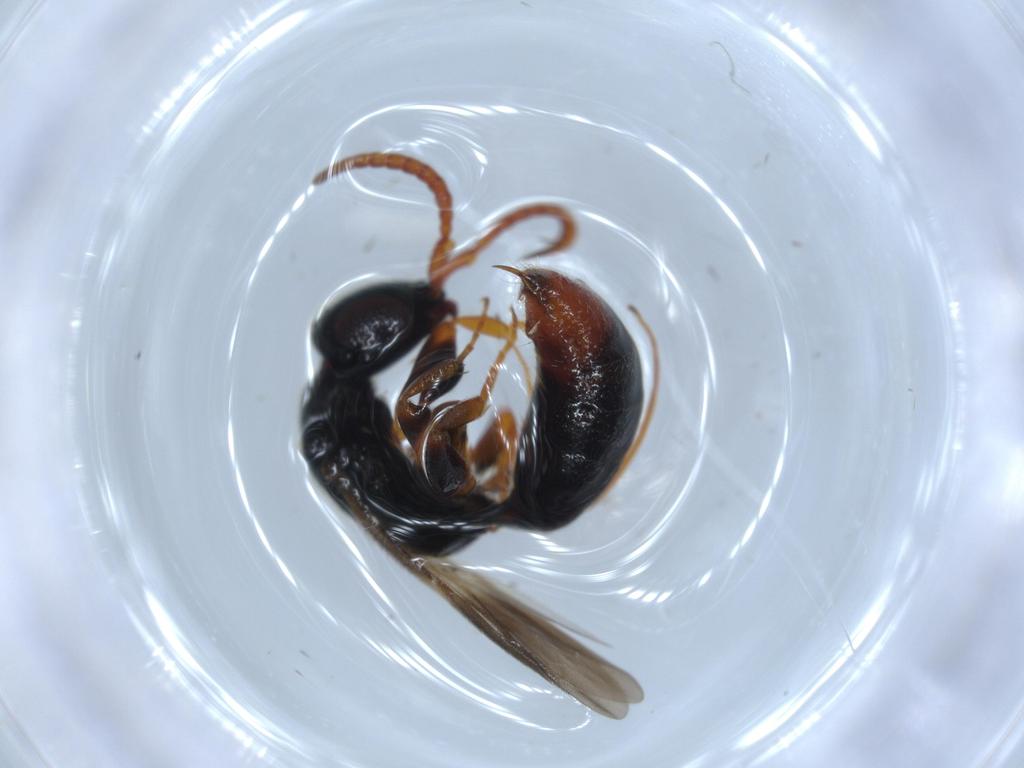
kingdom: Animalia
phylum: Arthropoda
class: Insecta
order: Hymenoptera
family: Bethylidae
